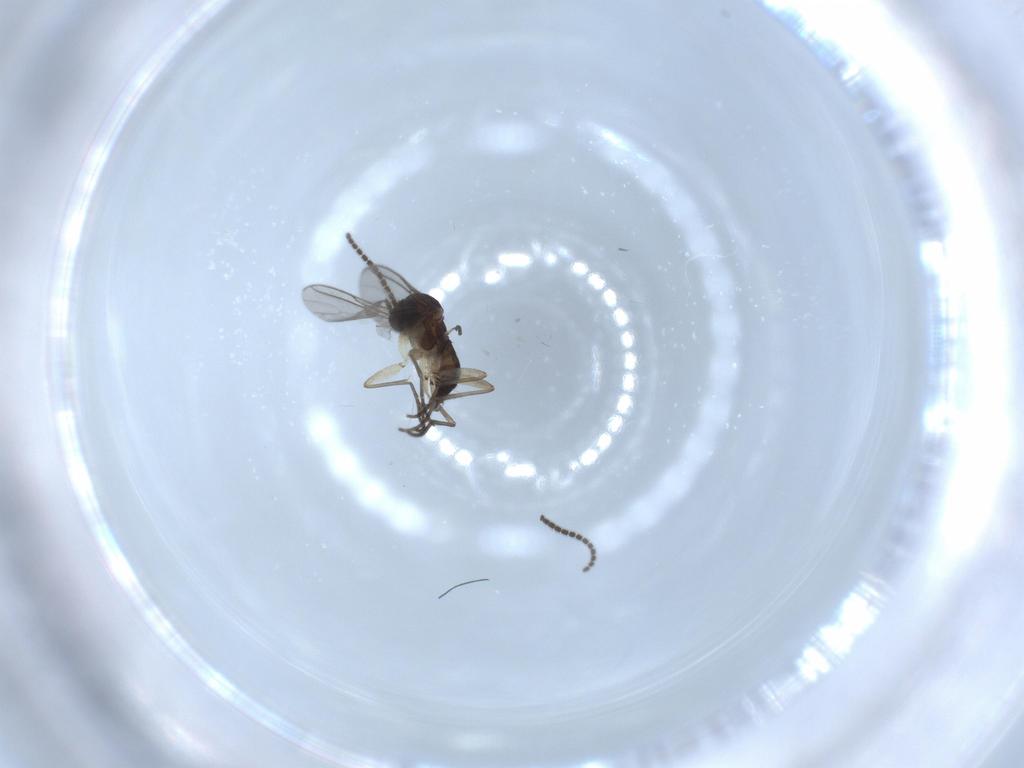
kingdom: Animalia
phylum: Arthropoda
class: Insecta
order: Diptera
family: Sciaridae
